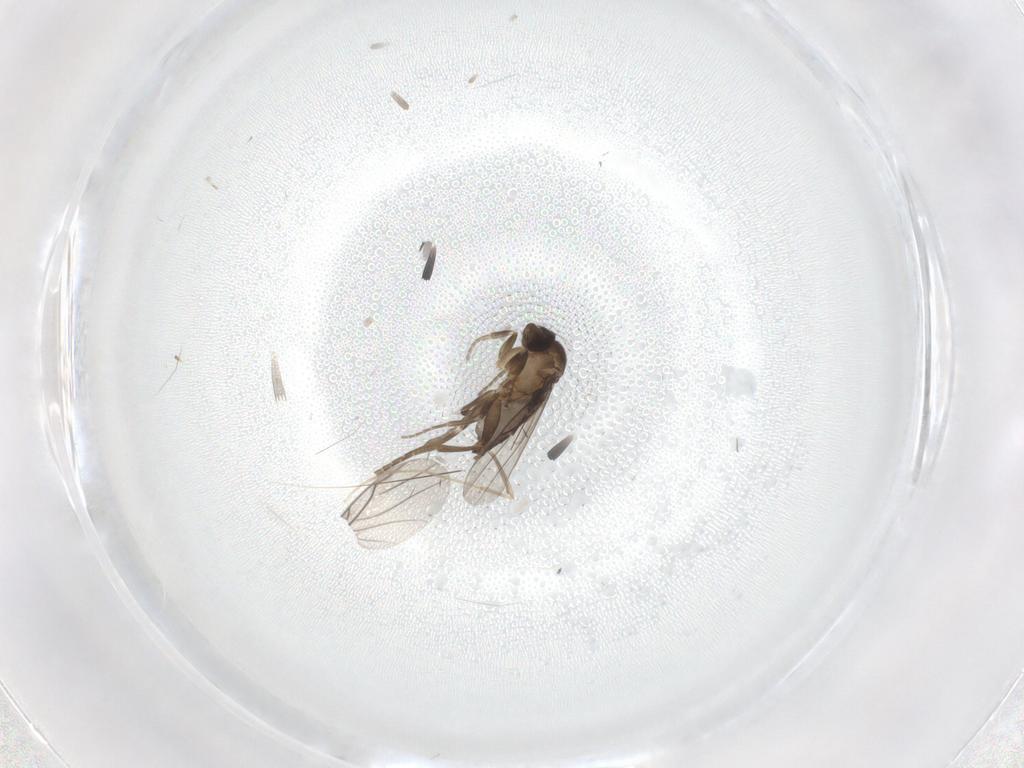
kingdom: Animalia
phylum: Arthropoda
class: Insecta
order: Diptera
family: Chironomidae
